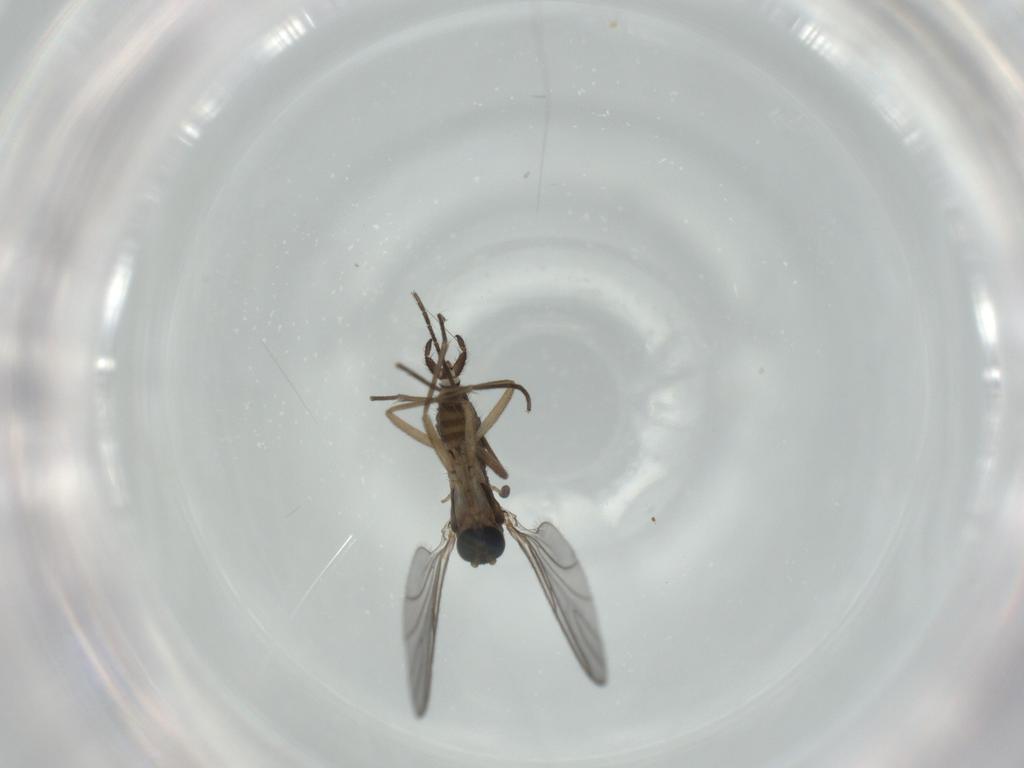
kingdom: Animalia
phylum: Arthropoda
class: Insecta
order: Diptera
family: Sciaridae
